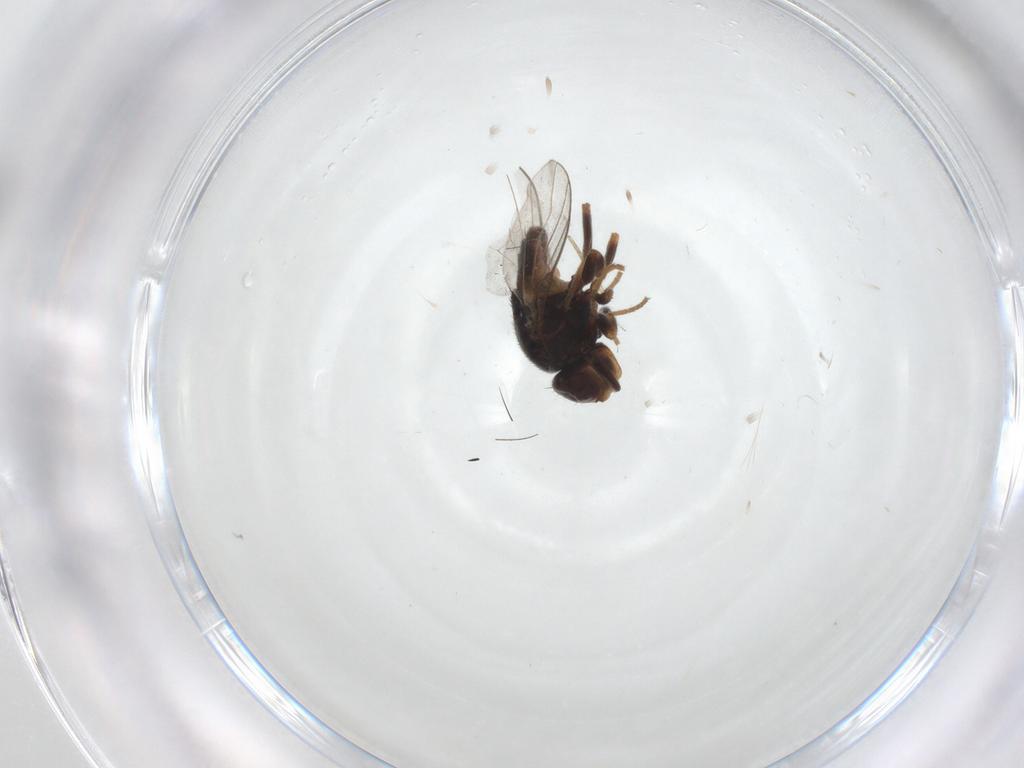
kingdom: Animalia
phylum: Arthropoda
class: Insecta
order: Diptera
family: Chloropidae
